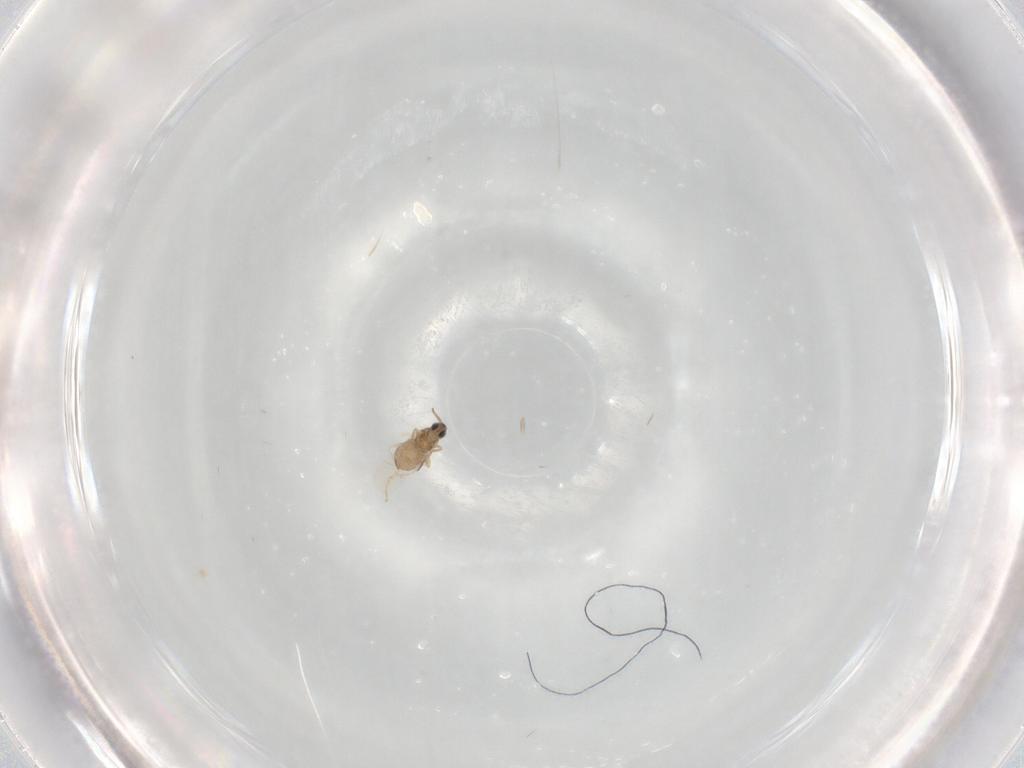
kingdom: Animalia
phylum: Arthropoda
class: Insecta
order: Diptera
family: Cecidomyiidae
